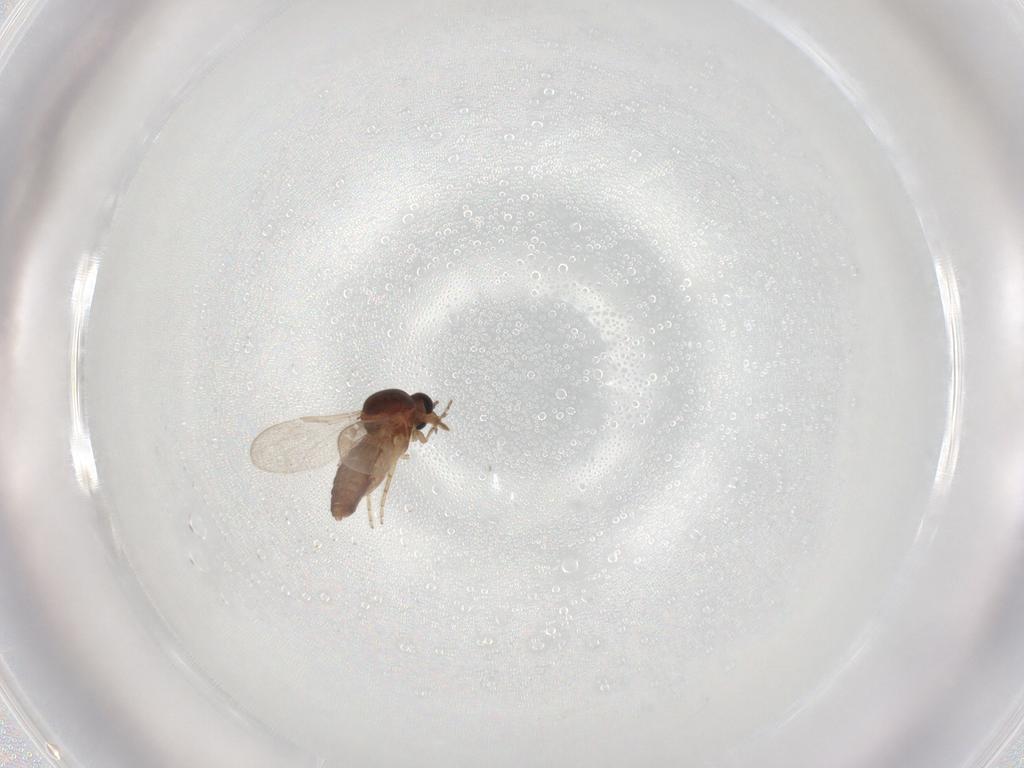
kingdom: Animalia
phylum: Arthropoda
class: Insecta
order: Diptera
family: Ceratopogonidae
